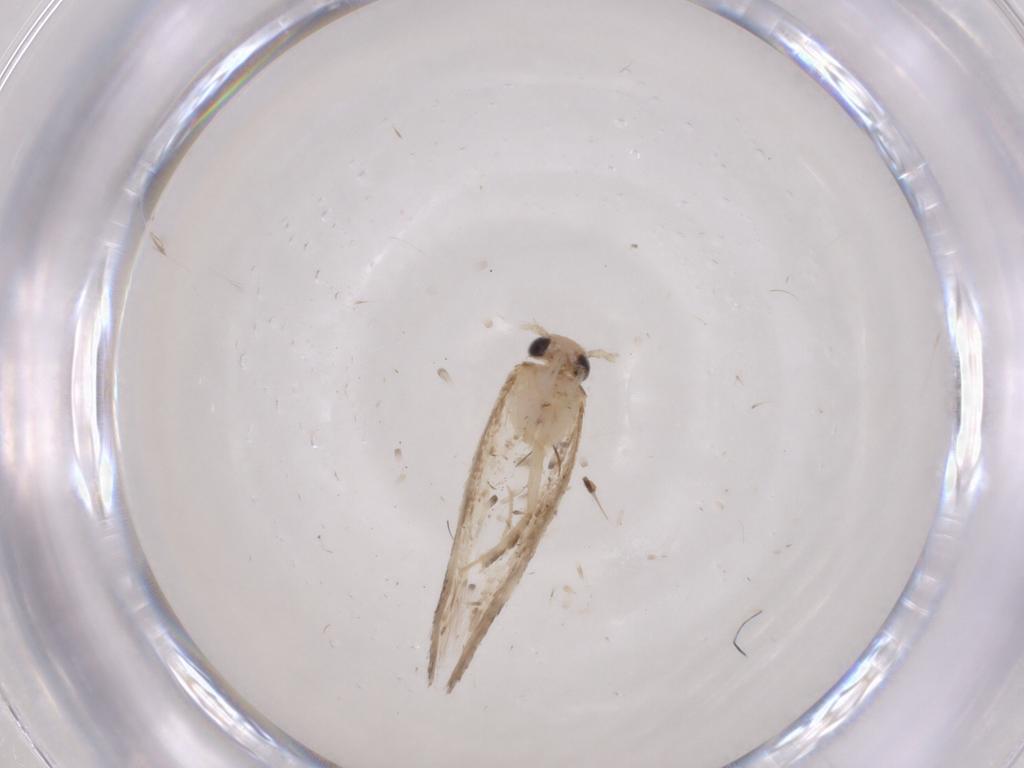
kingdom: Animalia
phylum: Arthropoda
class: Insecta
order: Lepidoptera
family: Gelechiidae
